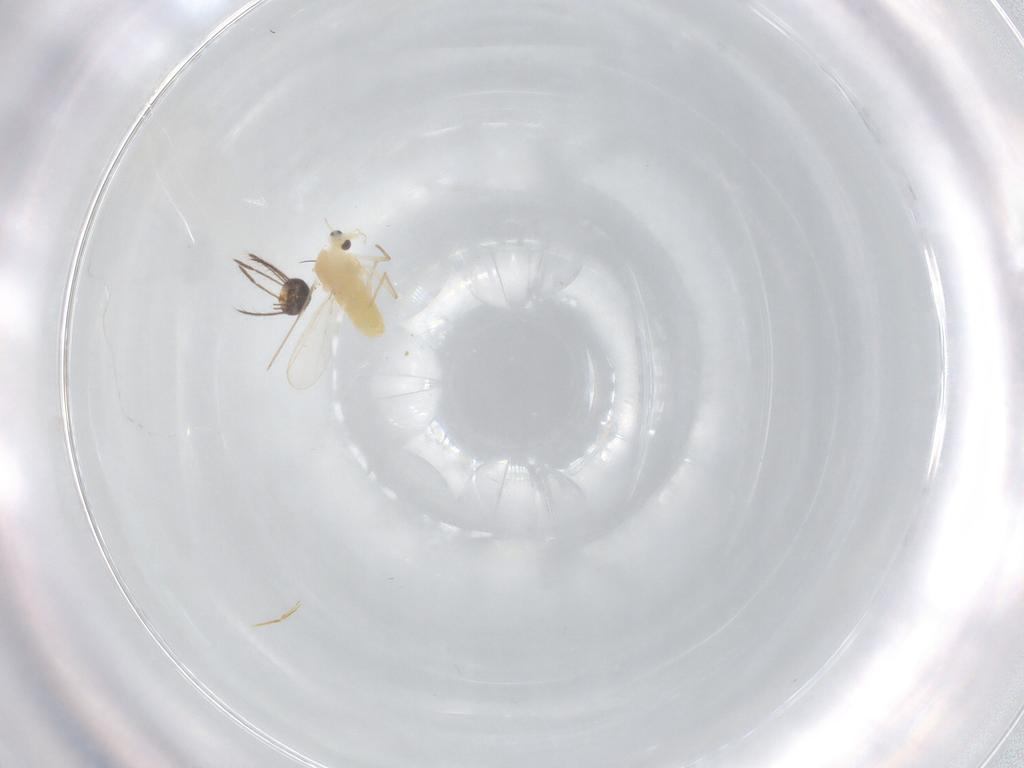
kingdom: Animalia
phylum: Arthropoda
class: Insecta
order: Diptera
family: Psychodidae
